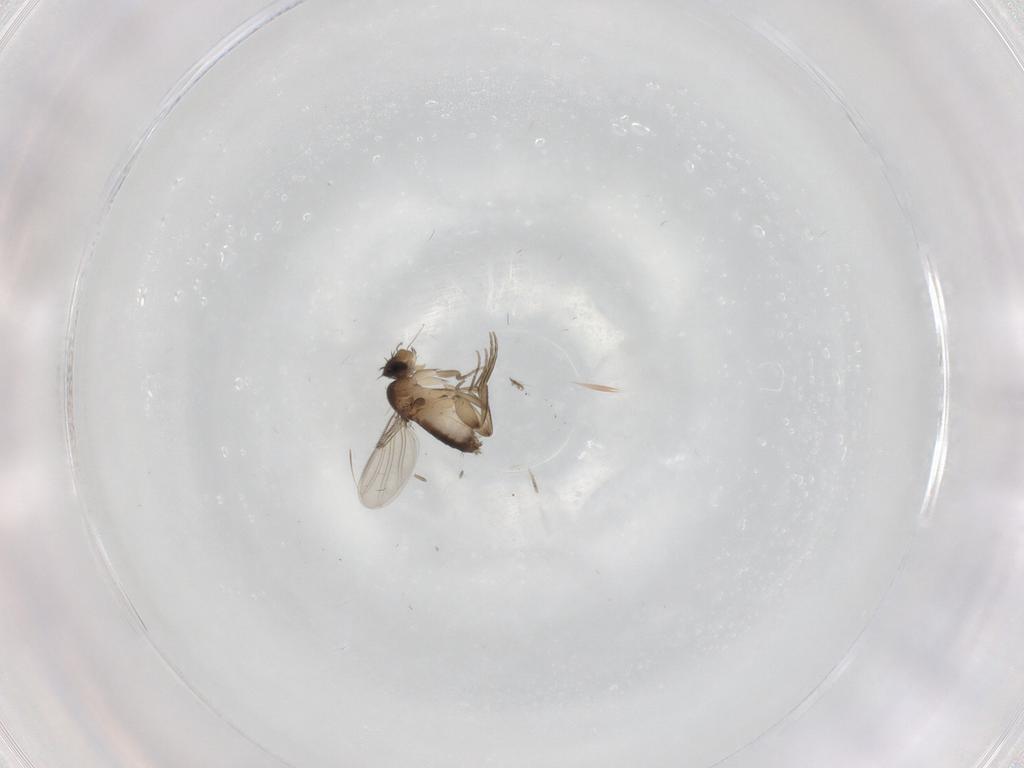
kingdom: Animalia
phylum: Arthropoda
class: Insecta
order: Diptera
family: Phoridae
